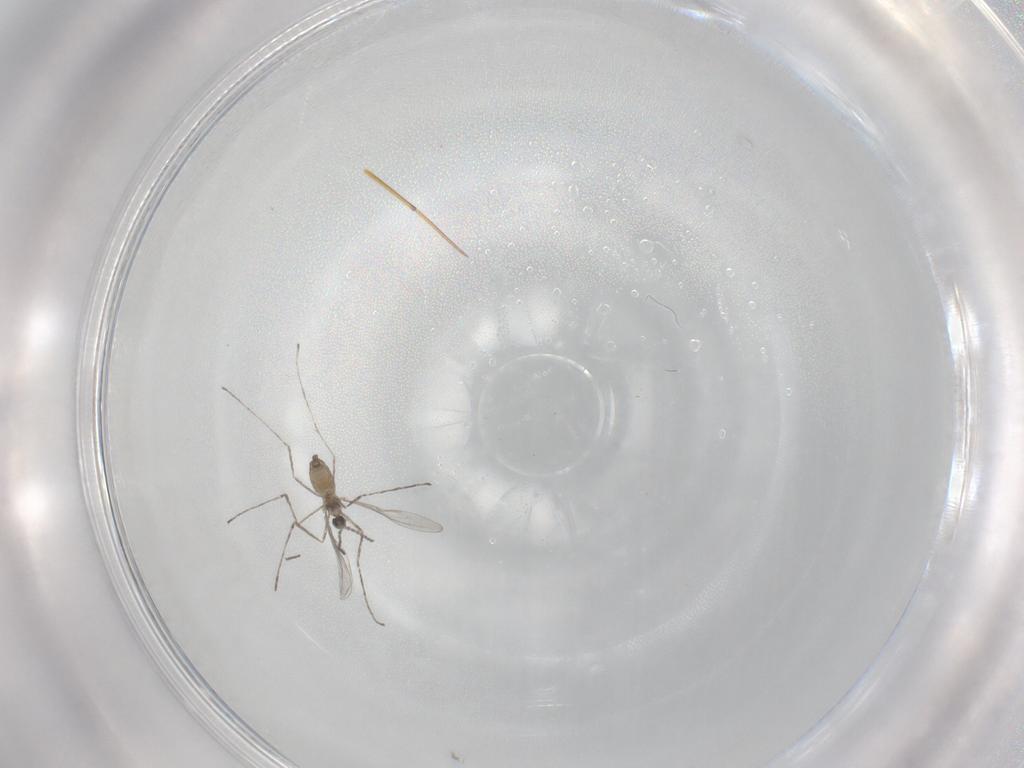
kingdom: Animalia
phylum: Arthropoda
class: Insecta
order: Diptera
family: Cecidomyiidae
